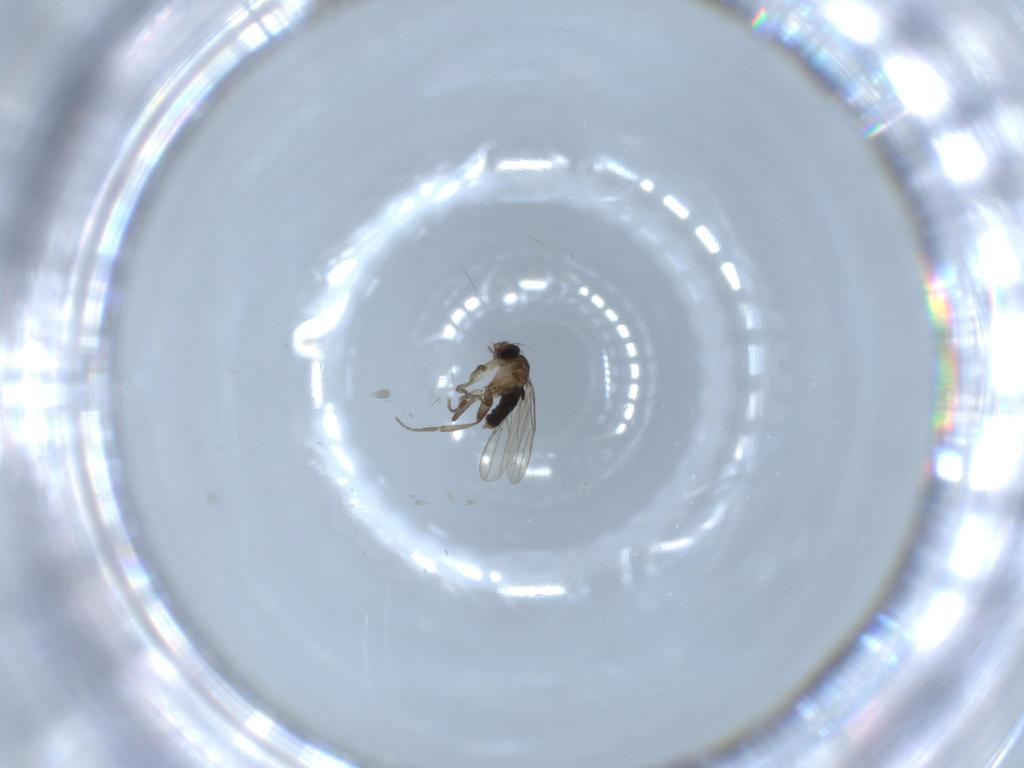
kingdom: Animalia
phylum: Arthropoda
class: Insecta
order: Diptera
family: Phoridae
